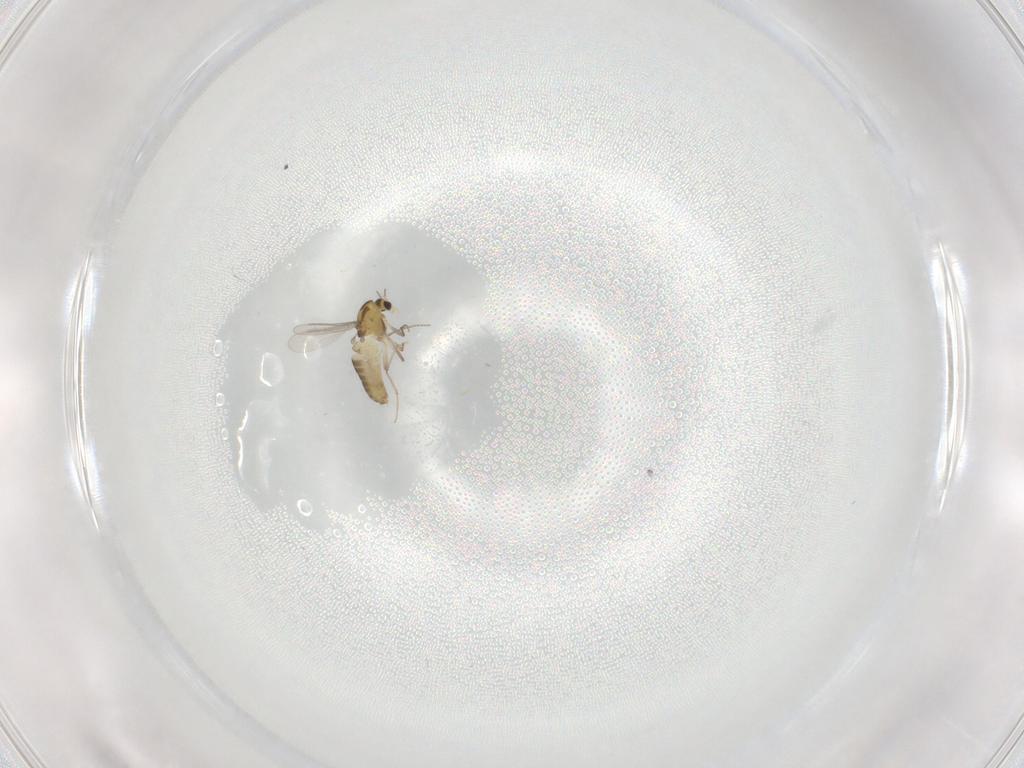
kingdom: Animalia
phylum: Arthropoda
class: Insecta
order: Diptera
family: Chironomidae
